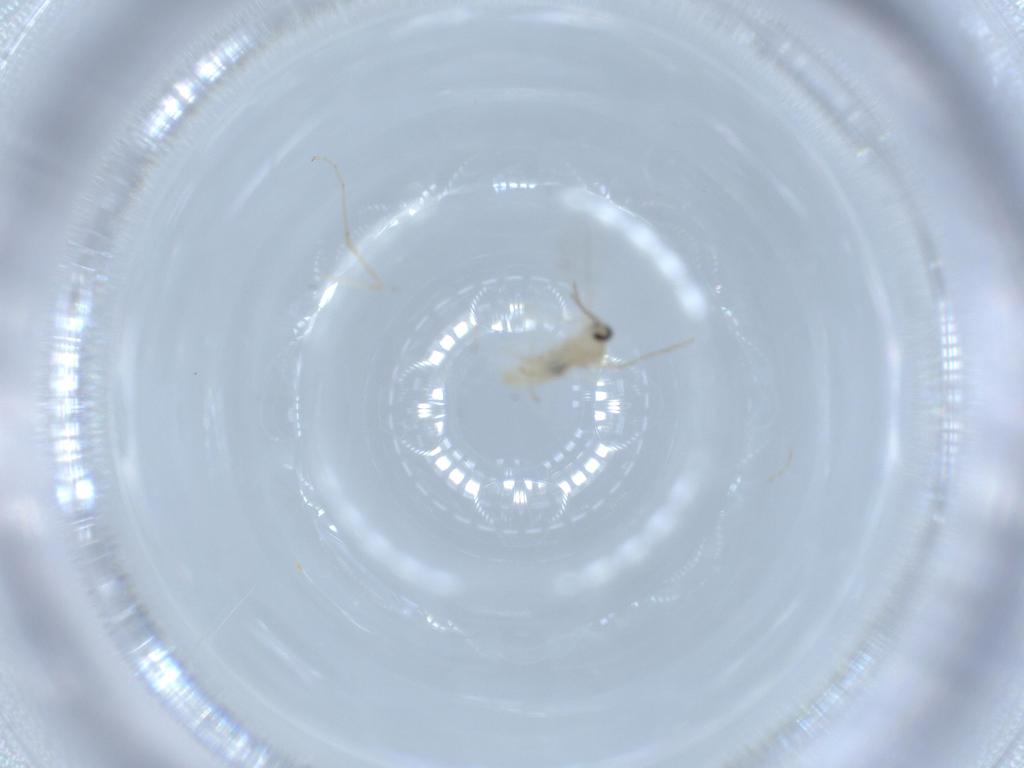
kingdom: Animalia
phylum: Arthropoda
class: Insecta
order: Diptera
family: Cecidomyiidae
